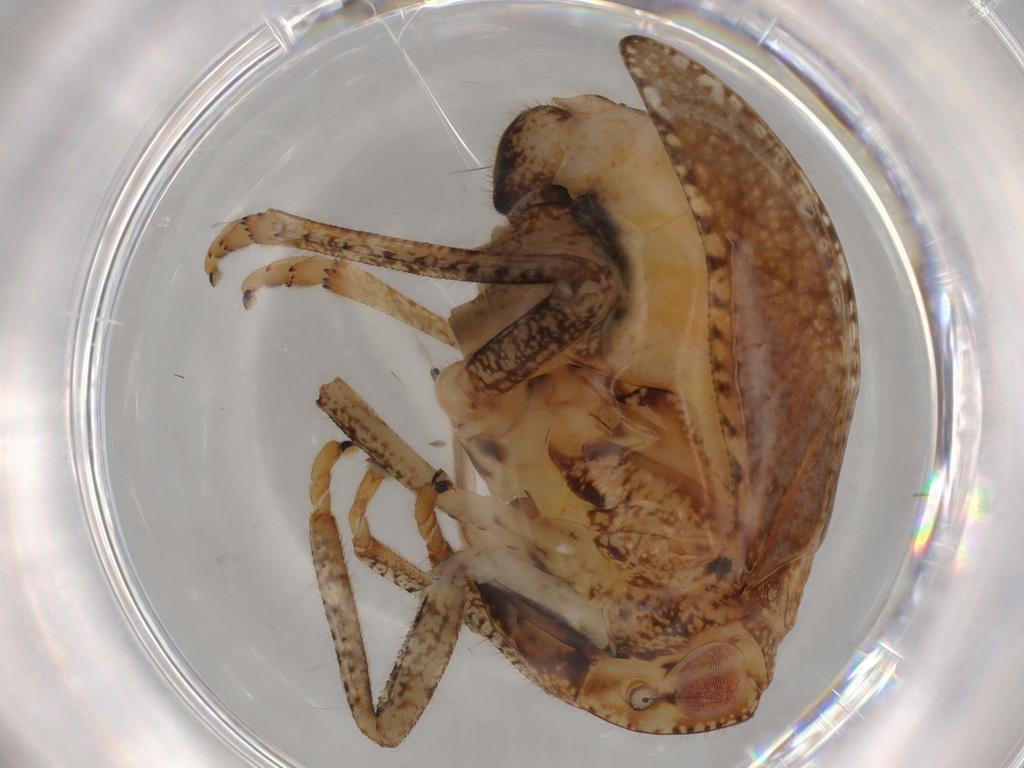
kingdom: Animalia
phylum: Arthropoda
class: Insecta
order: Hemiptera
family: Tropiduchidae
